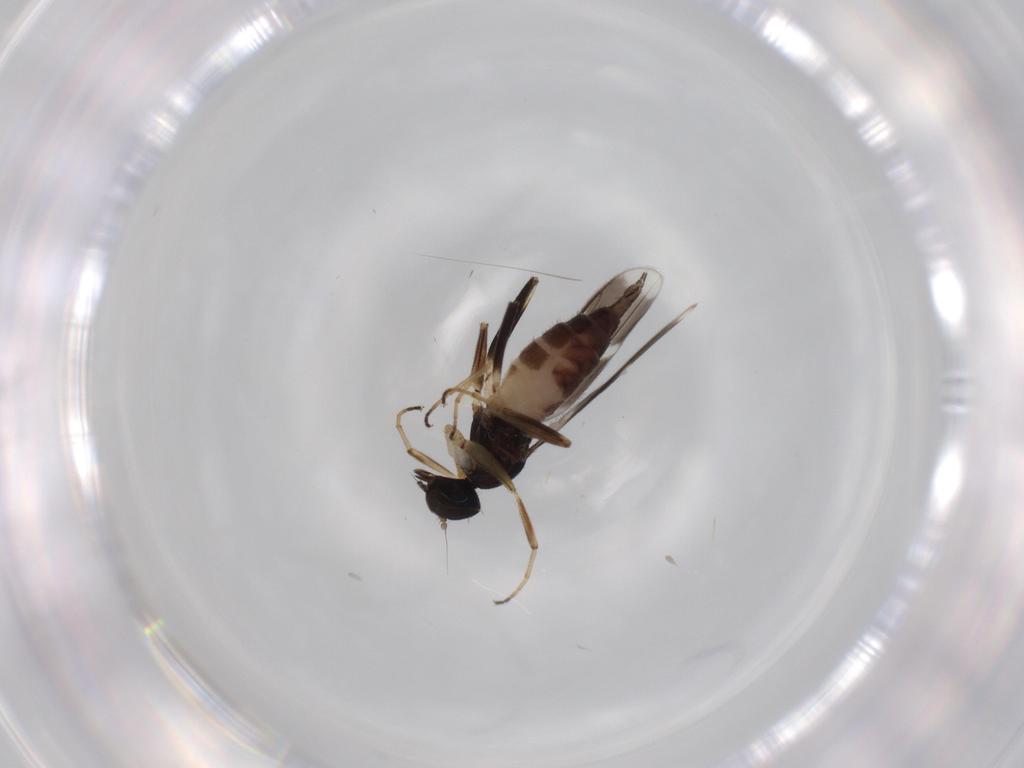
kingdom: Animalia
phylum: Arthropoda
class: Insecta
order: Diptera
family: Hybotidae
